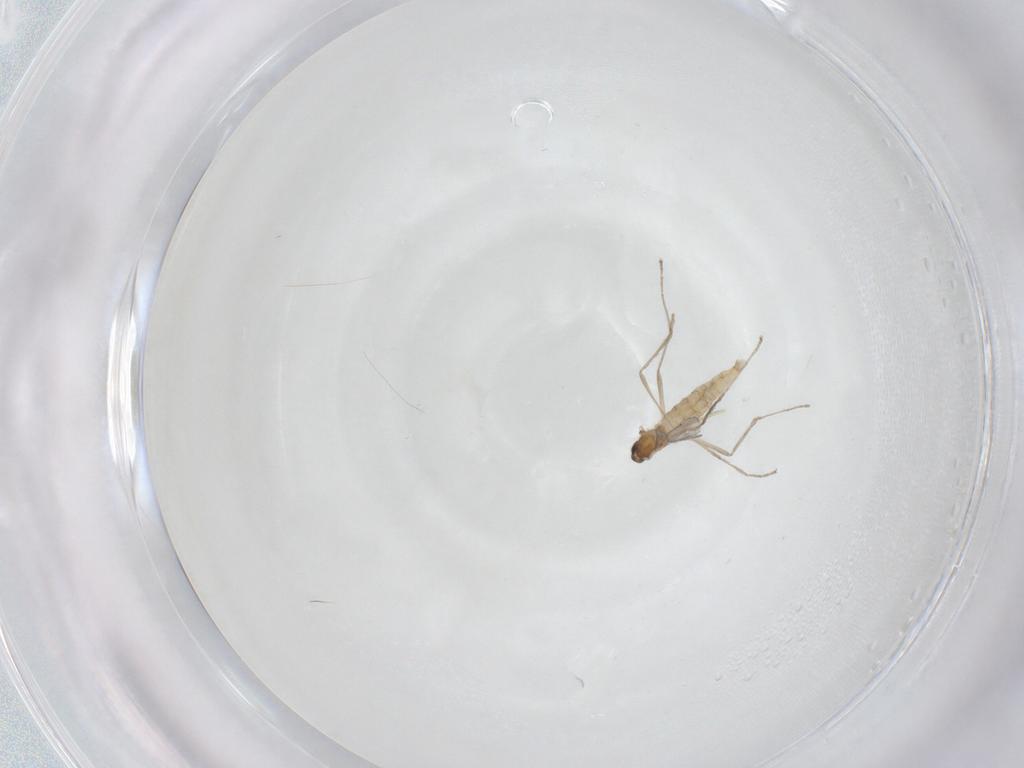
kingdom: Animalia
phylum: Arthropoda
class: Insecta
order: Diptera
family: Cecidomyiidae
